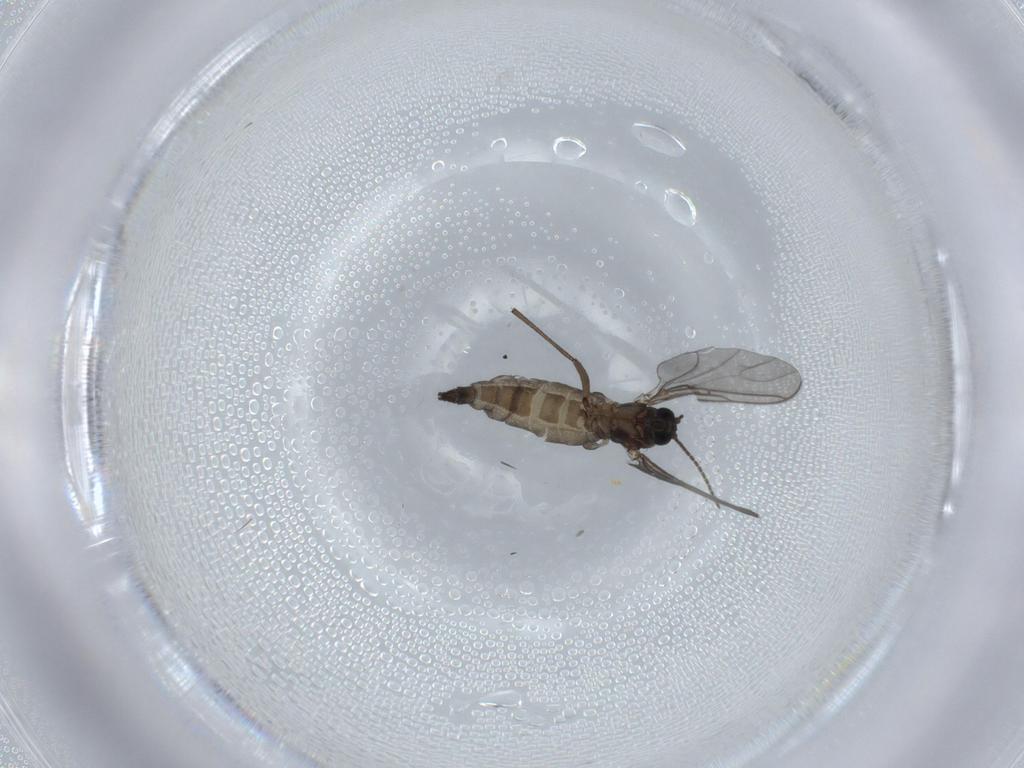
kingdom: Animalia
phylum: Arthropoda
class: Insecta
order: Diptera
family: Sciaridae
